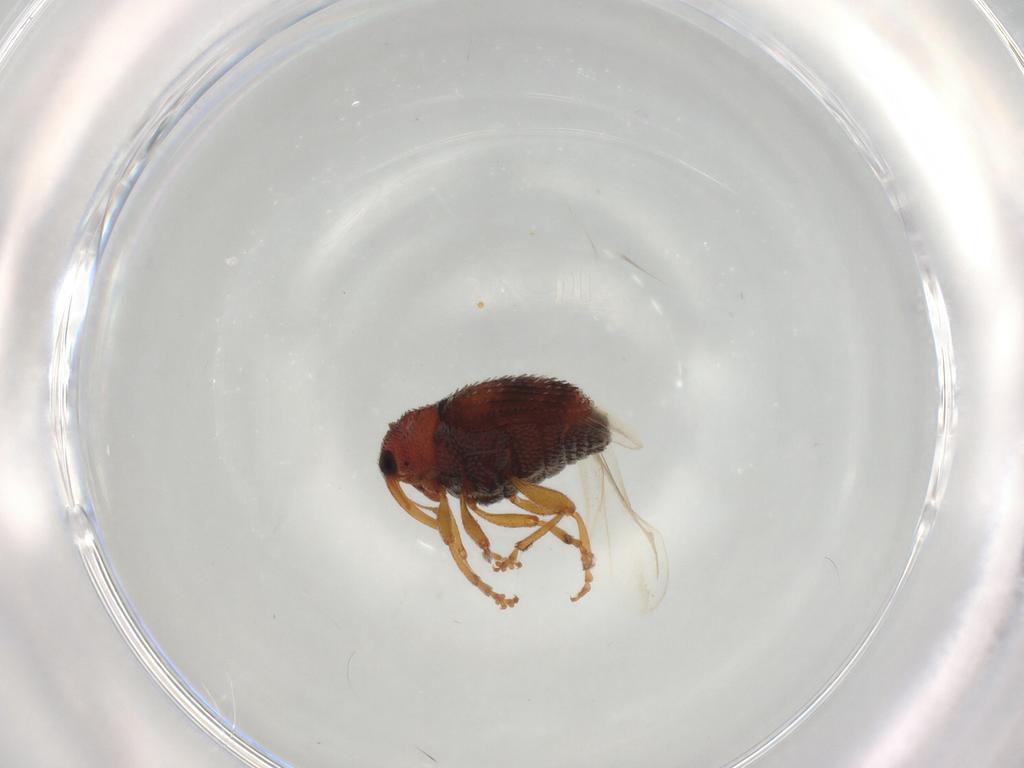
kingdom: Animalia
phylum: Arthropoda
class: Insecta
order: Coleoptera
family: Curculionidae
